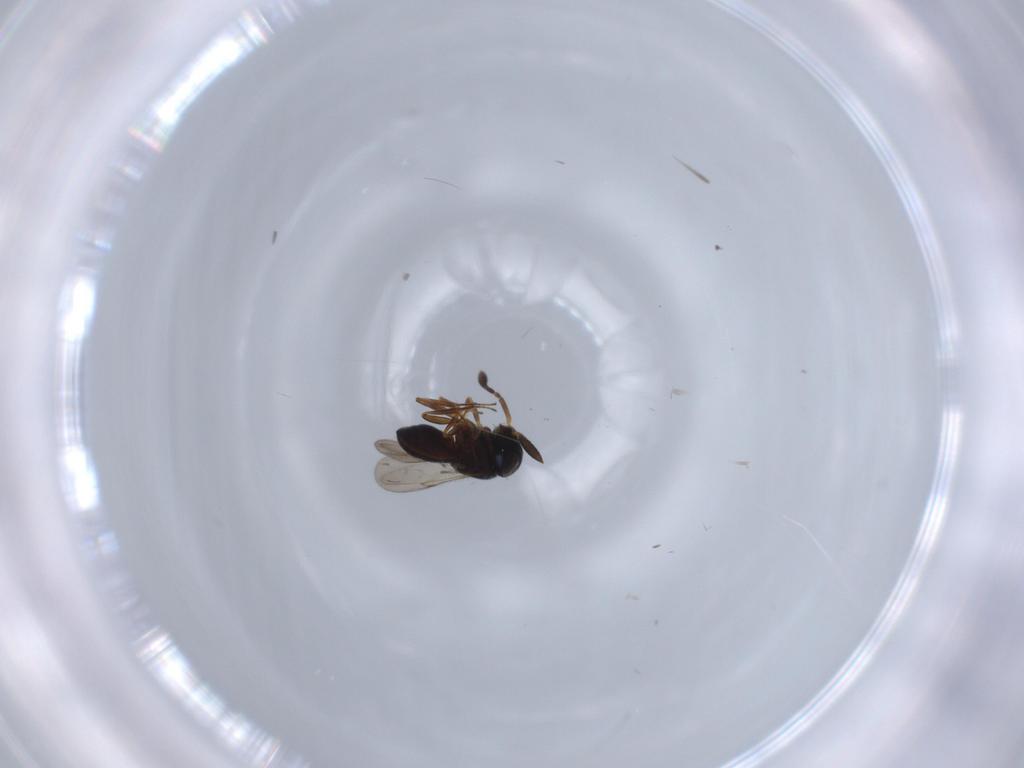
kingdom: Animalia
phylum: Arthropoda
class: Insecta
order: Hymenoptera
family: Scelionidae
